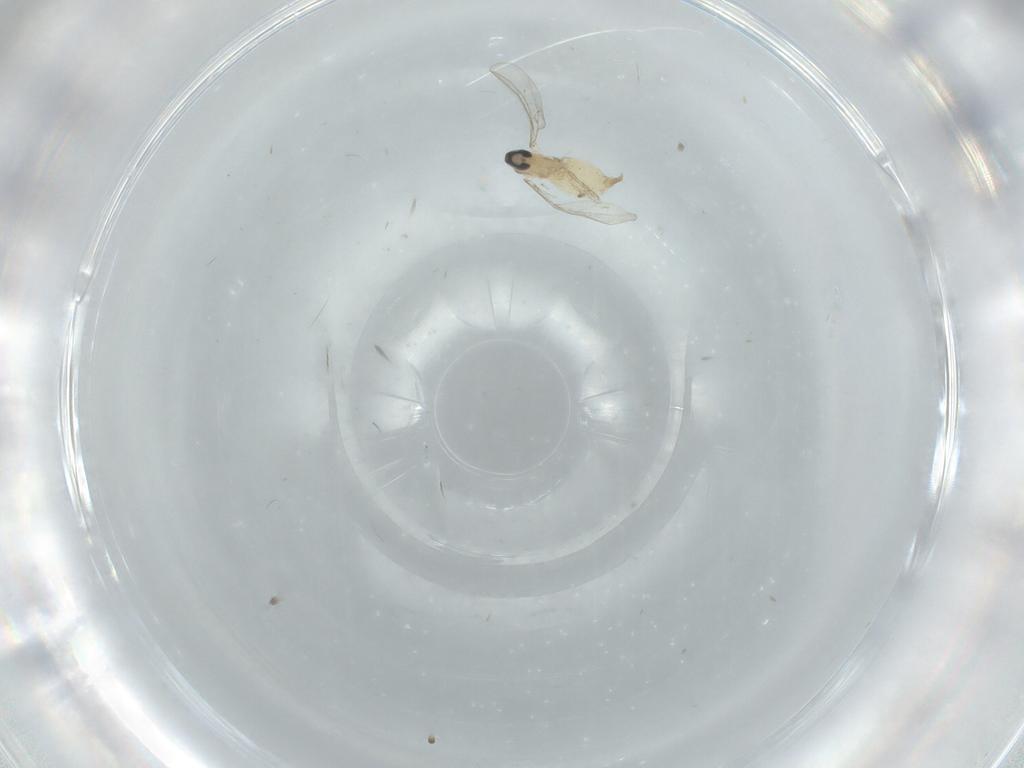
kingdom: Animalia
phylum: Arthropoda
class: Insecta
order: Diptera
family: Cecidomyiidae
